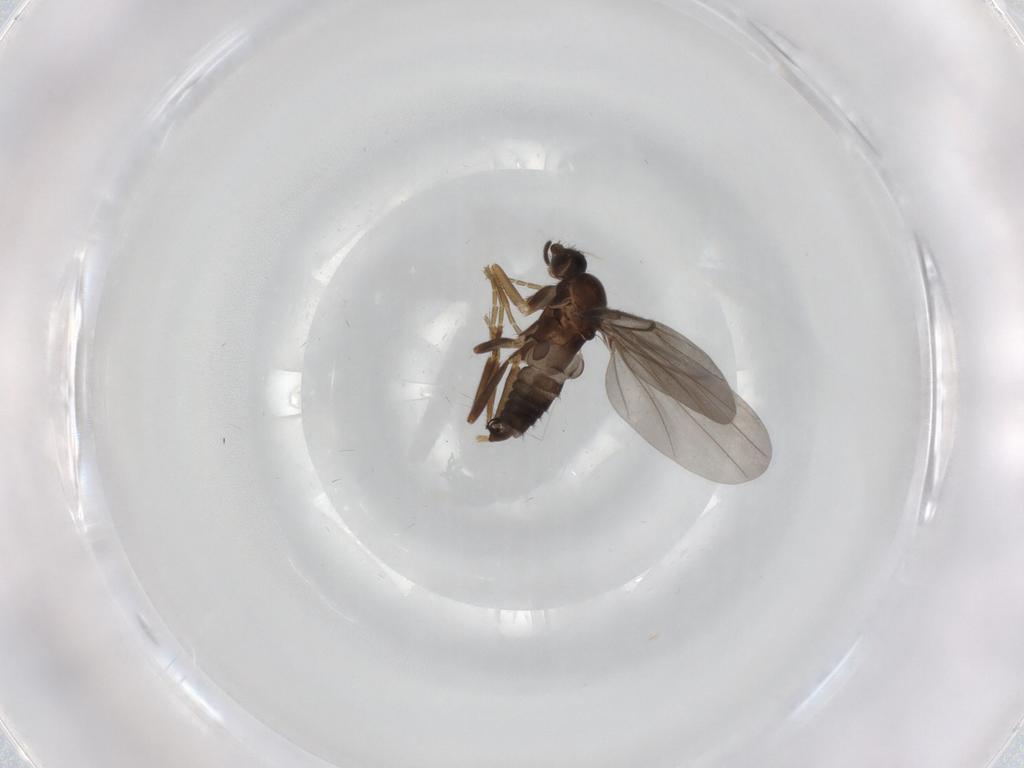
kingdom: Animalia
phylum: Arthropoda
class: Insecta
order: Diptera
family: Psychodidae
